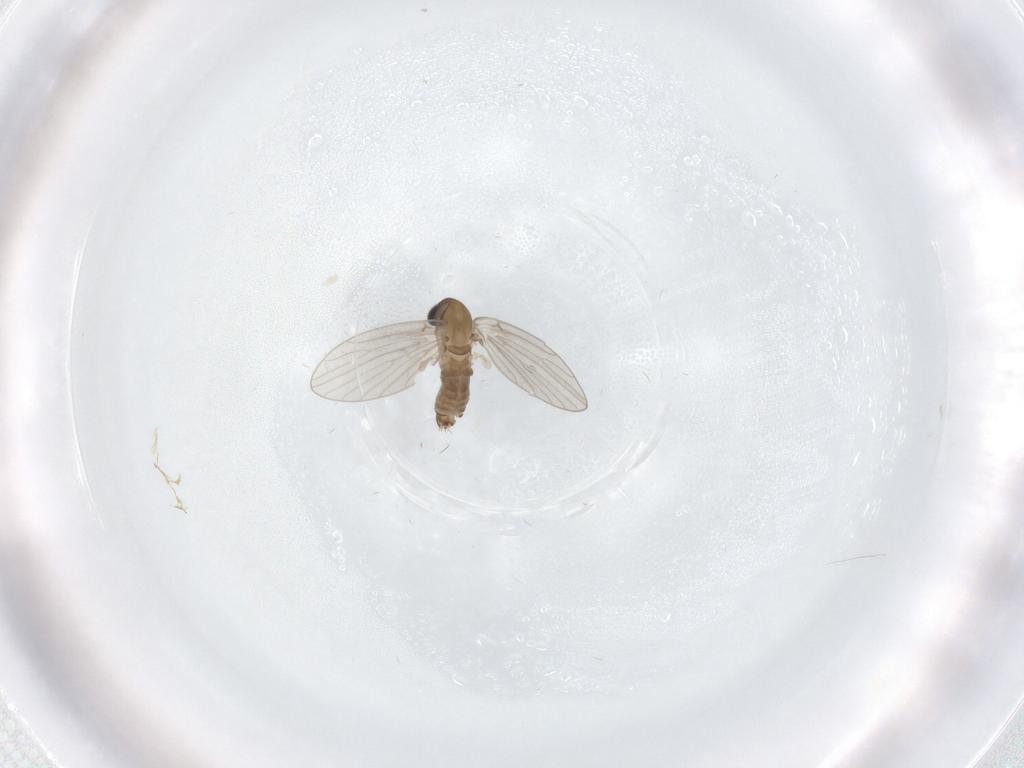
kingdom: Animalia
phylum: Arthropoda
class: Insecta
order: Diptera
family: Psychodidae
